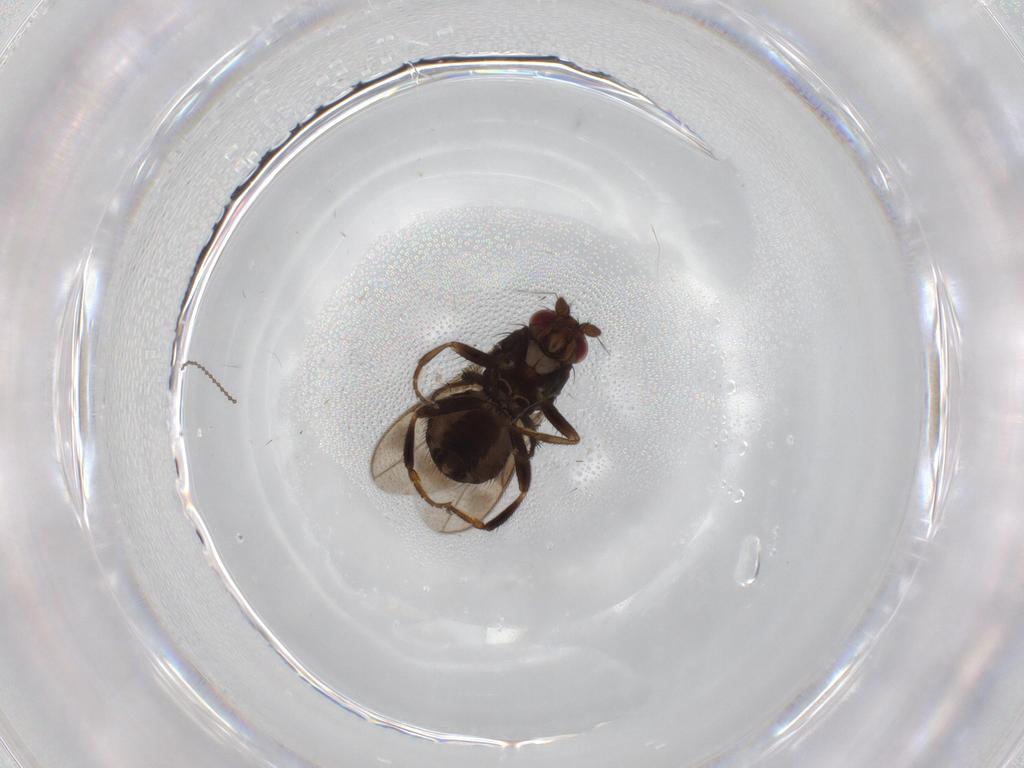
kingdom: Animalia
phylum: Arthropoda
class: Insecta
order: Diptera
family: Sphaeroceridae
